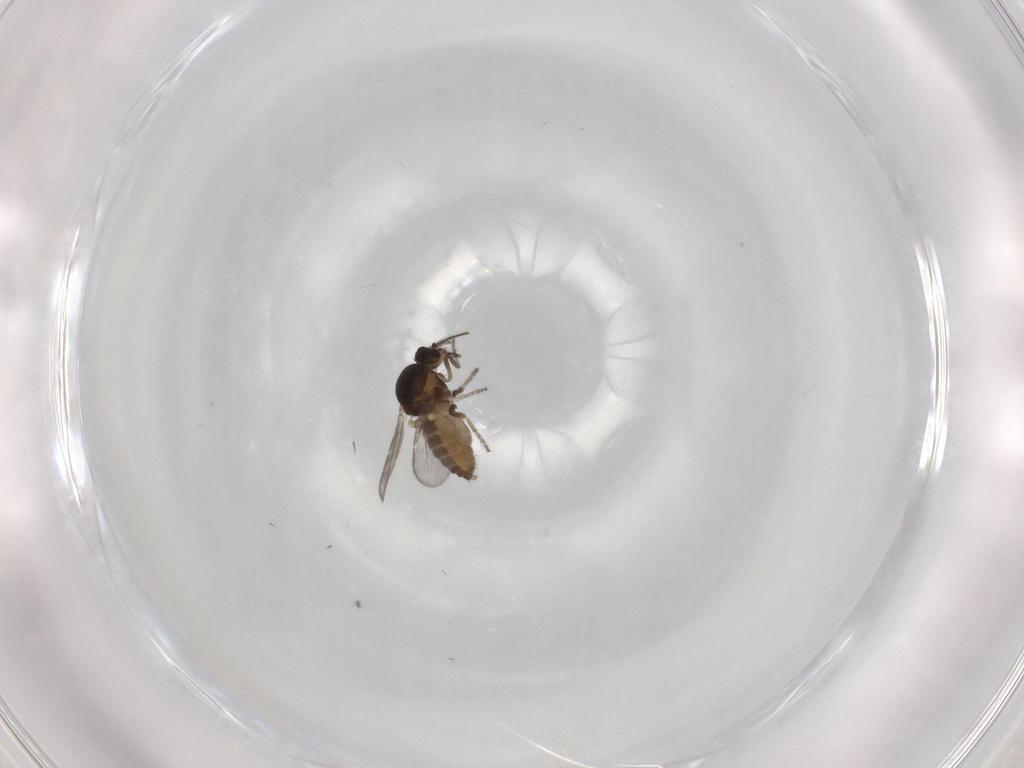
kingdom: Animalia
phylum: Arthropoda
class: Insecta
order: Diptera
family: Chironomidae
